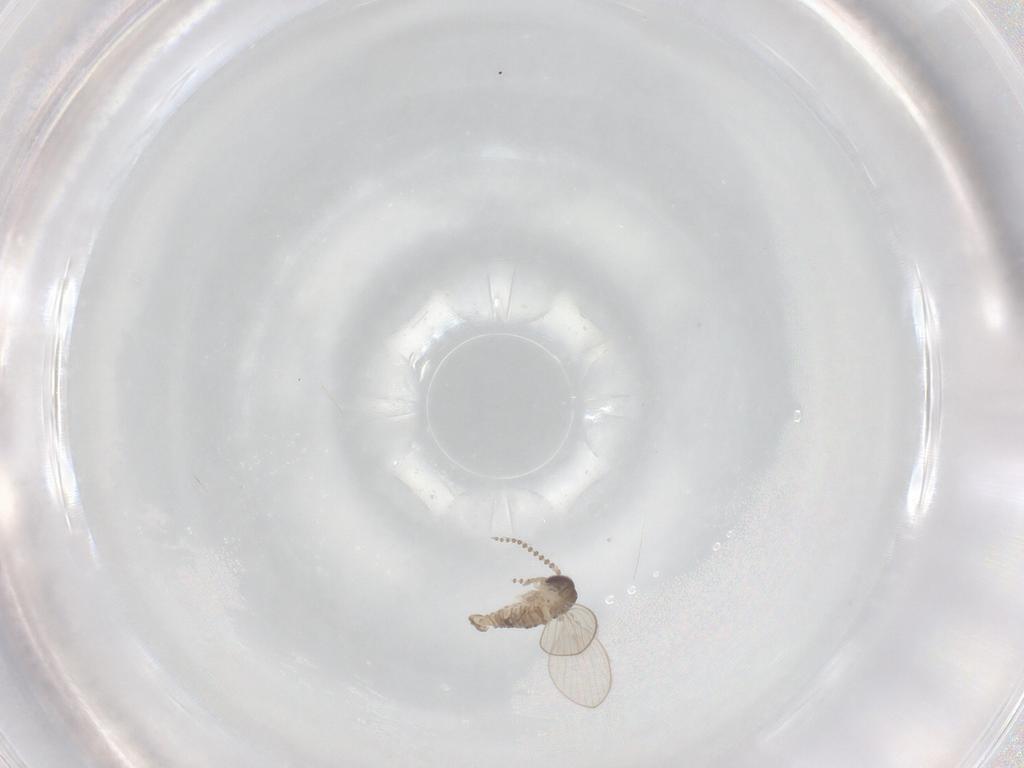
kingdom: Animalia
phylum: Arthropoda
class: Insecta
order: Diptera
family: Psychodidae
